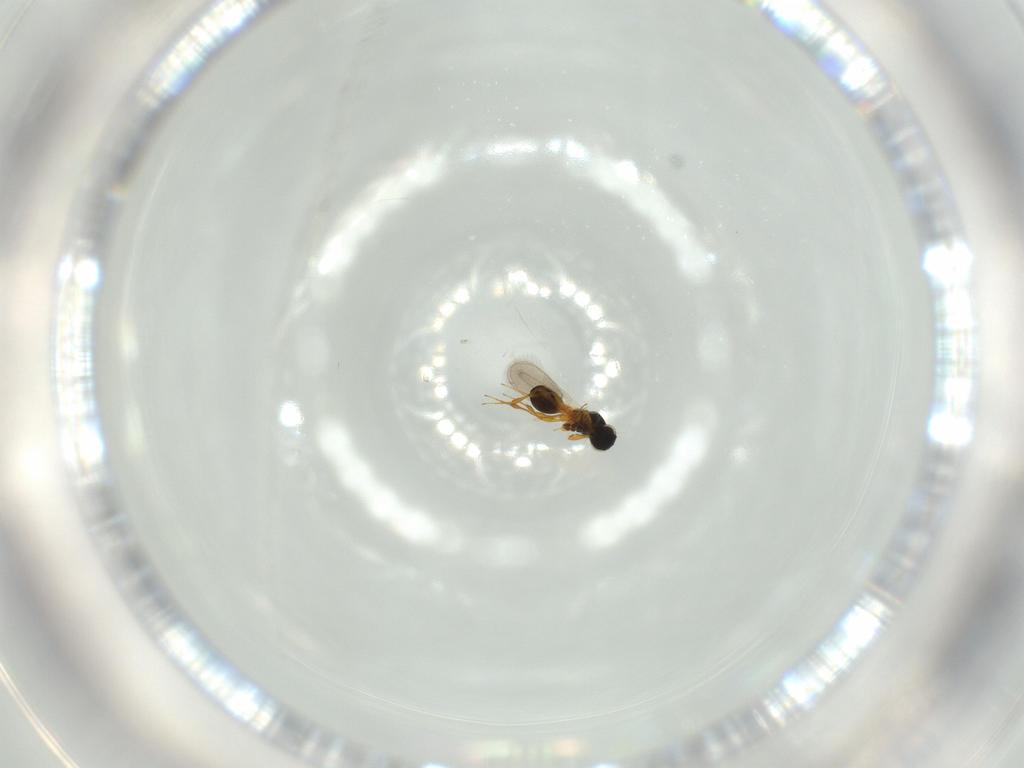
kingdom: Animalia
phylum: Arthropoda
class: Insecta
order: Hymenoptera
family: Platygastridae
